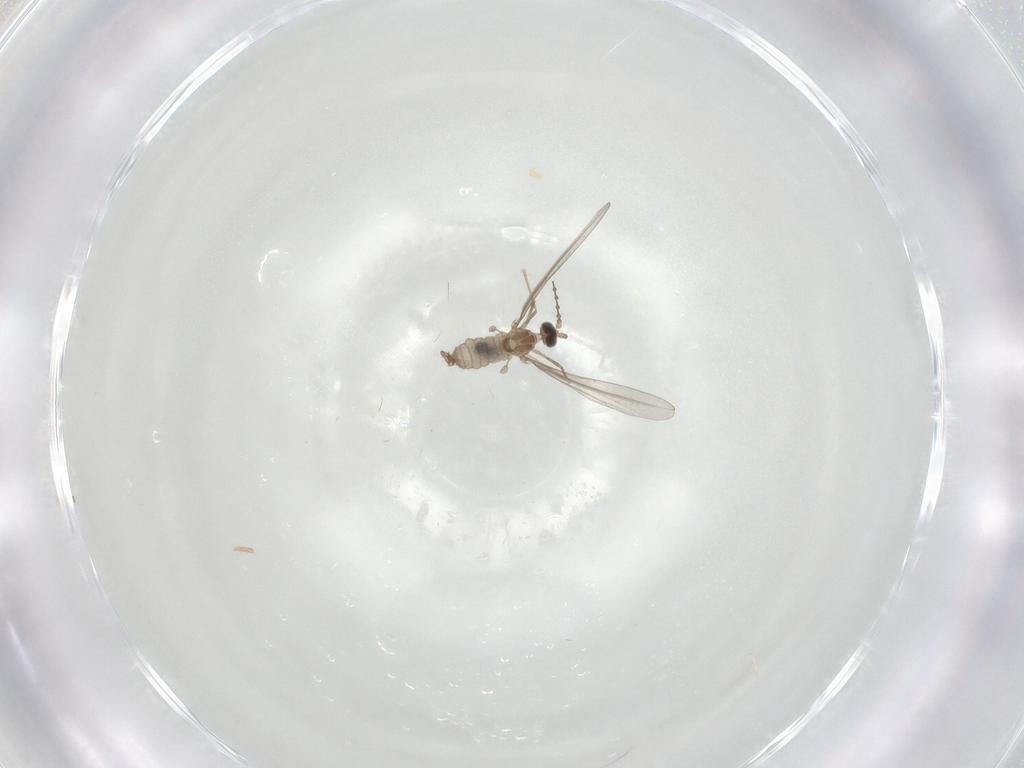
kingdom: Animalia
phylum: Arthropoda
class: Insecta
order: Diptera
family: Cecidomyiidae
